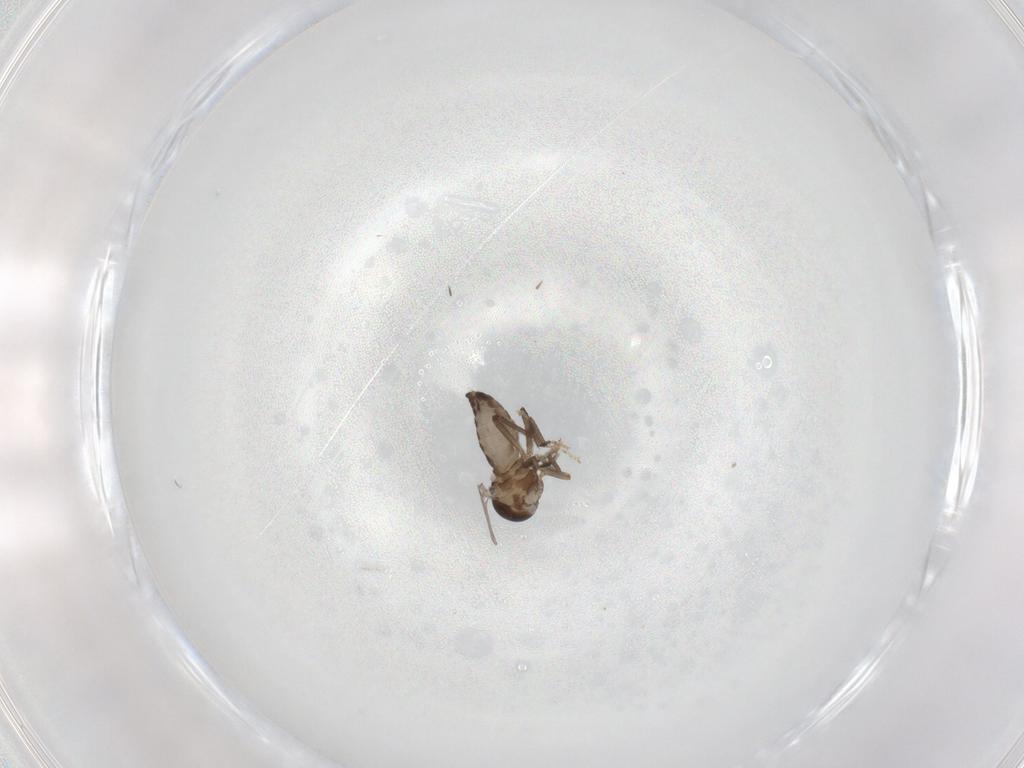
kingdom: Animalia
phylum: Arthropoda
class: Insecta
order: Diptera
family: Ceratopogonidae
